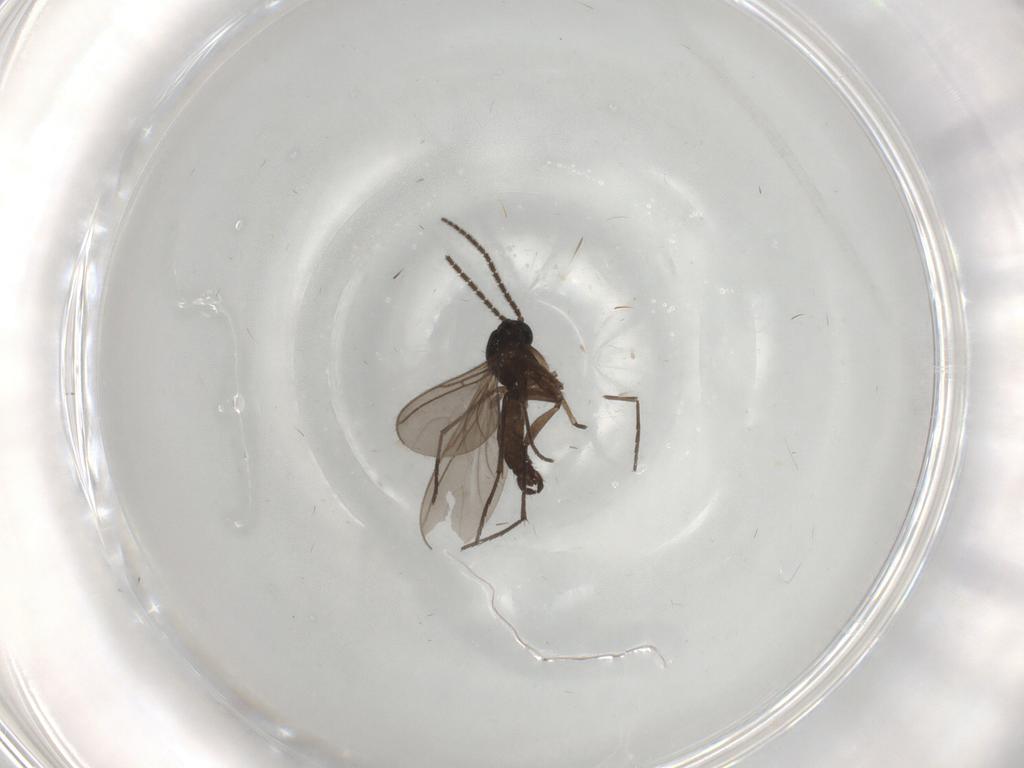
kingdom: Animalia
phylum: Arthropoda
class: Insecta
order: Diptera
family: Sciaridae
